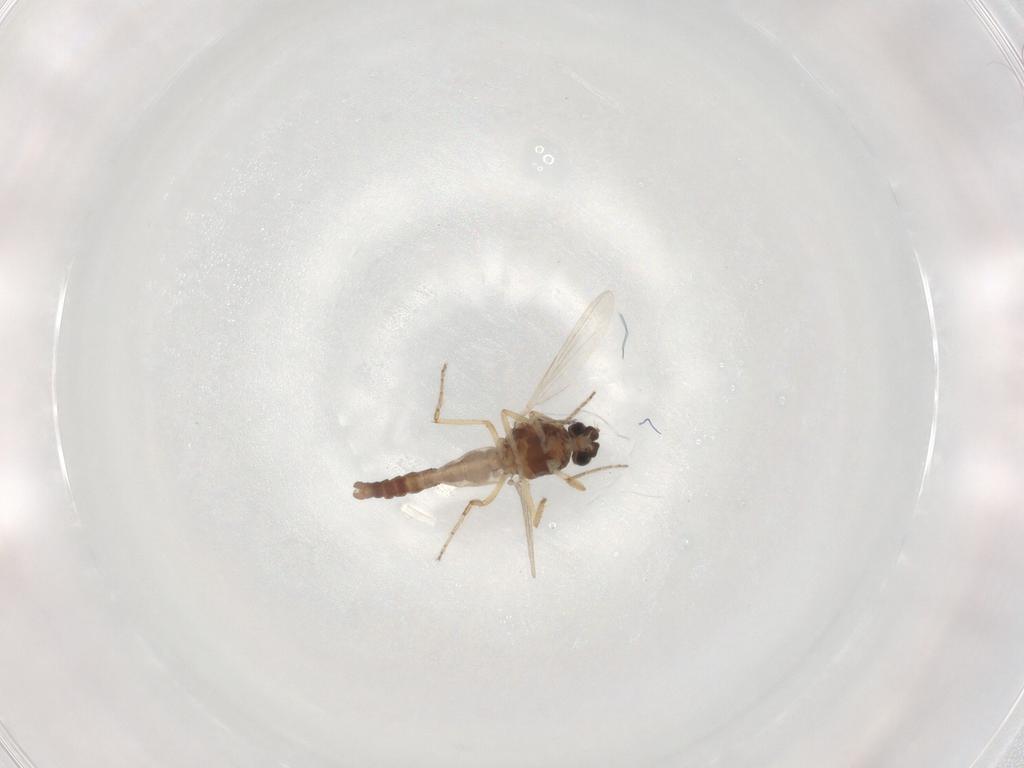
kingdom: Animalia
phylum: Arthropoda
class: Insecta
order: Diptera
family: Ceratopogonidae
